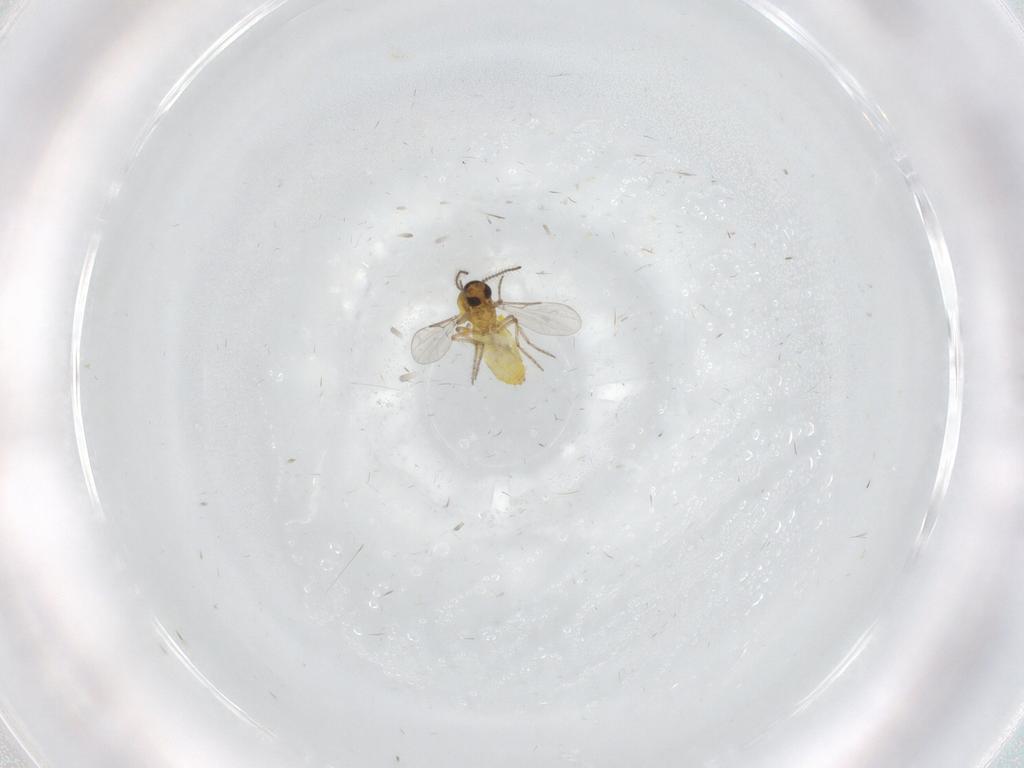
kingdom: Animalia
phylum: Arthropoda
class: Insecta
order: Diptera
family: Ceratopogonidae
